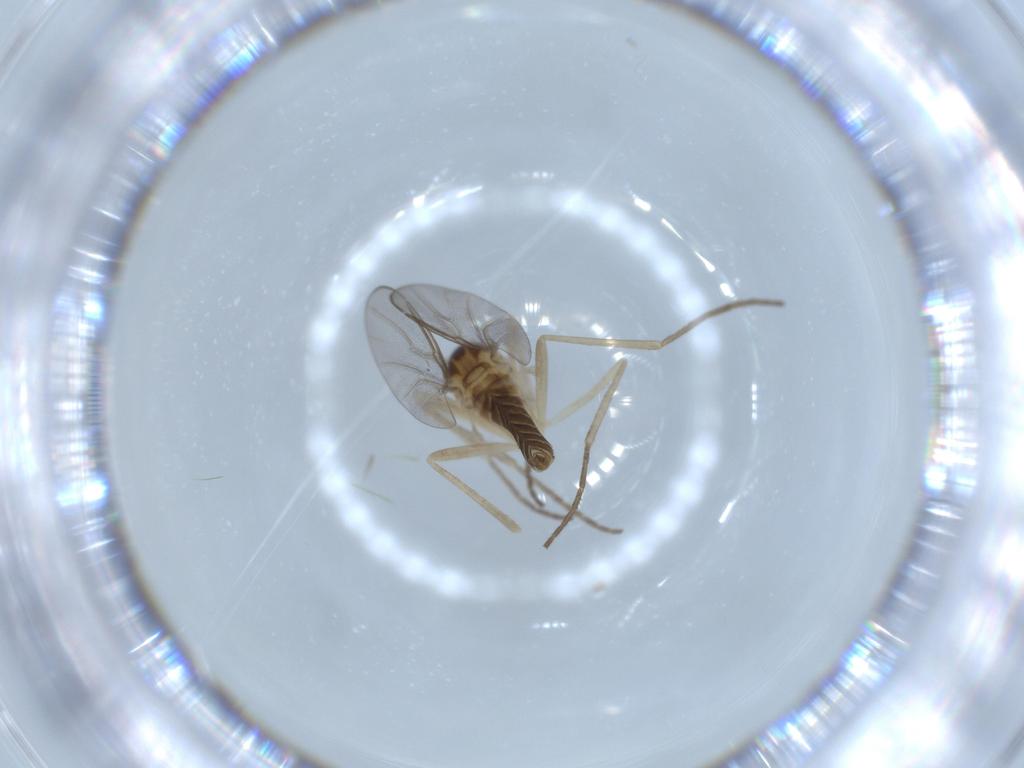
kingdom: Animalia
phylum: Arthropoda
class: Insecta
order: Diptera
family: Cecidomyiidae
